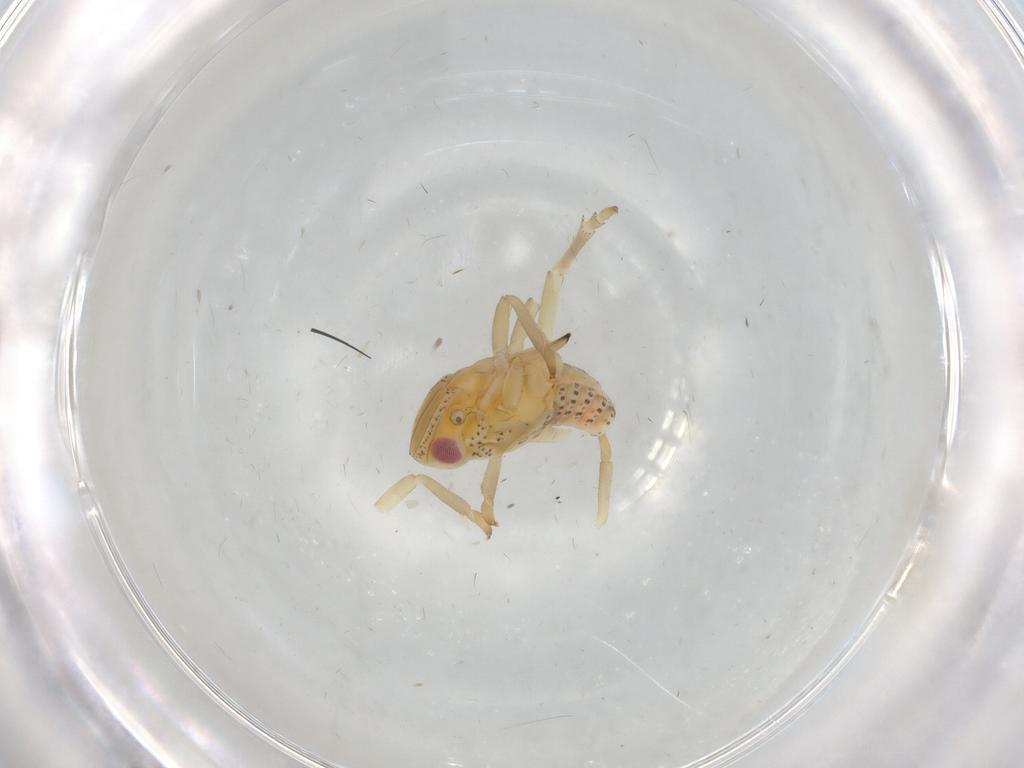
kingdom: Animalia
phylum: Arthropoda
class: Insecta
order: Hemiptera
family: Tropiduchidae
